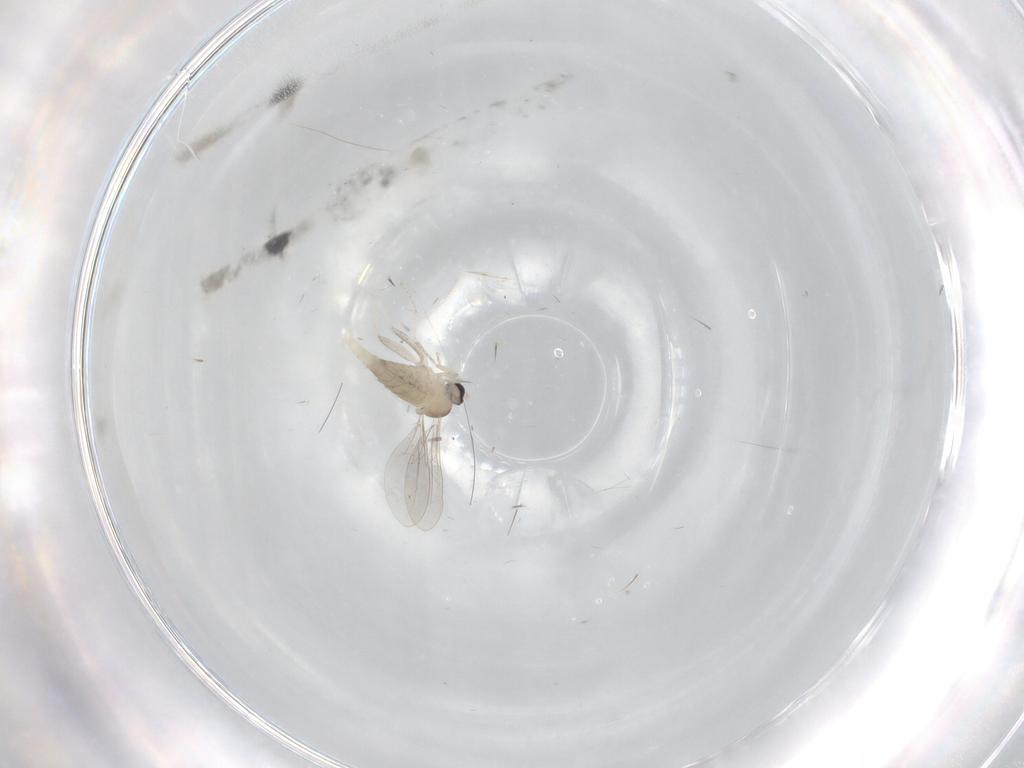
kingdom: Animalia
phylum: Arthropoda
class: Insecta
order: Diptera
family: Cecidomyiidae
